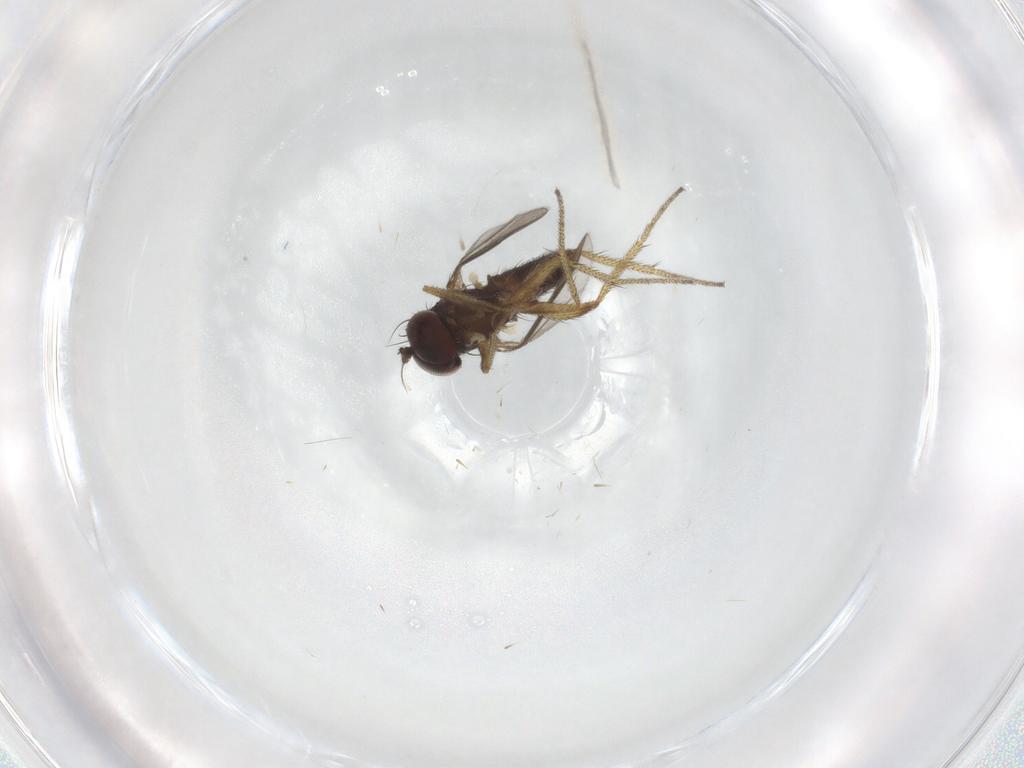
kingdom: Animalia
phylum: Arthropoda
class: Insecta
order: Diptera
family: Dolichopodidae
